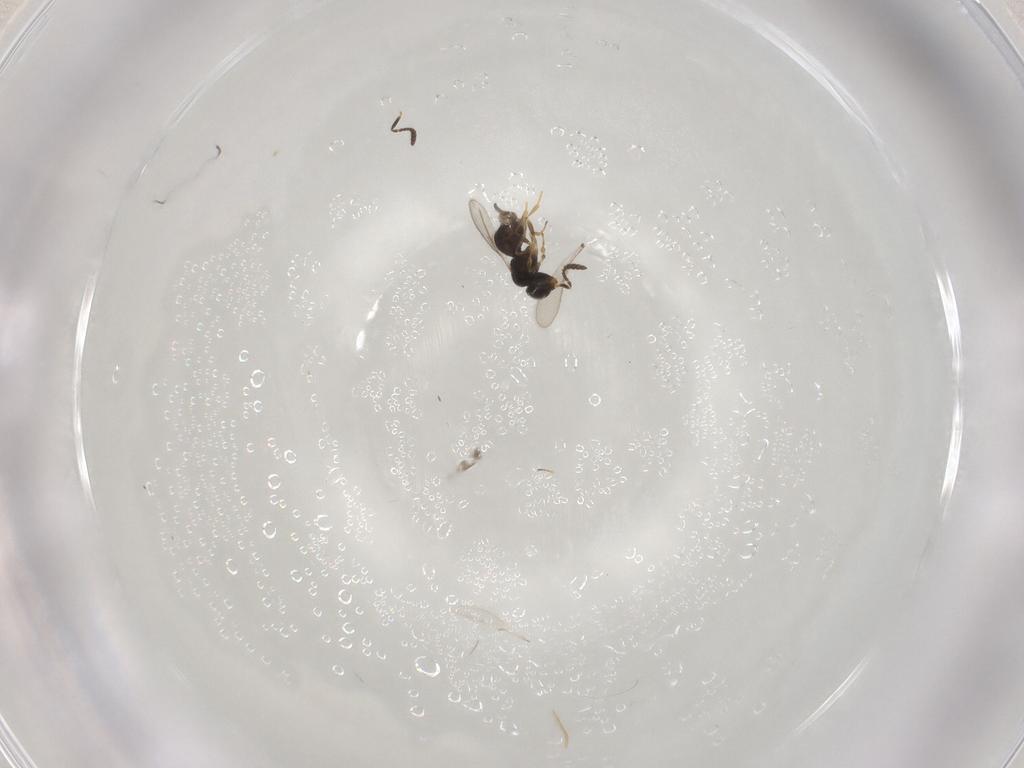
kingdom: Animalia
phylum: Arthropoda
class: Insecta
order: Hymenoptera
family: Scelionidae
